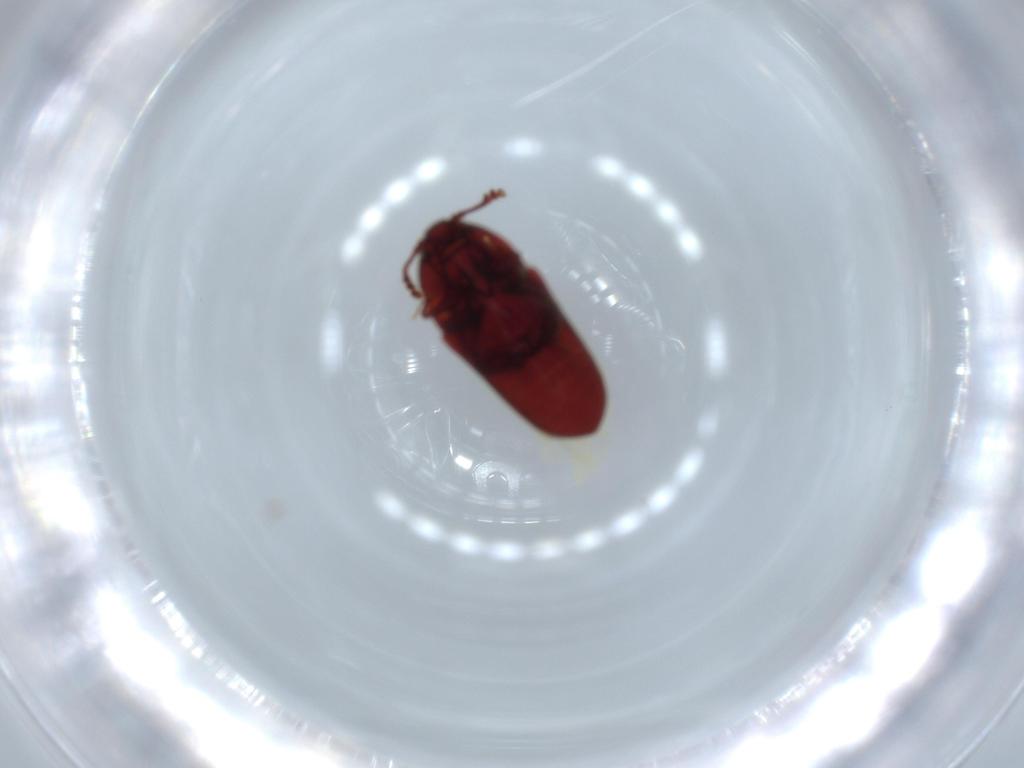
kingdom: Animalia
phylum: Arthropoda
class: Insecta
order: Coleoptera
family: Throscidae
